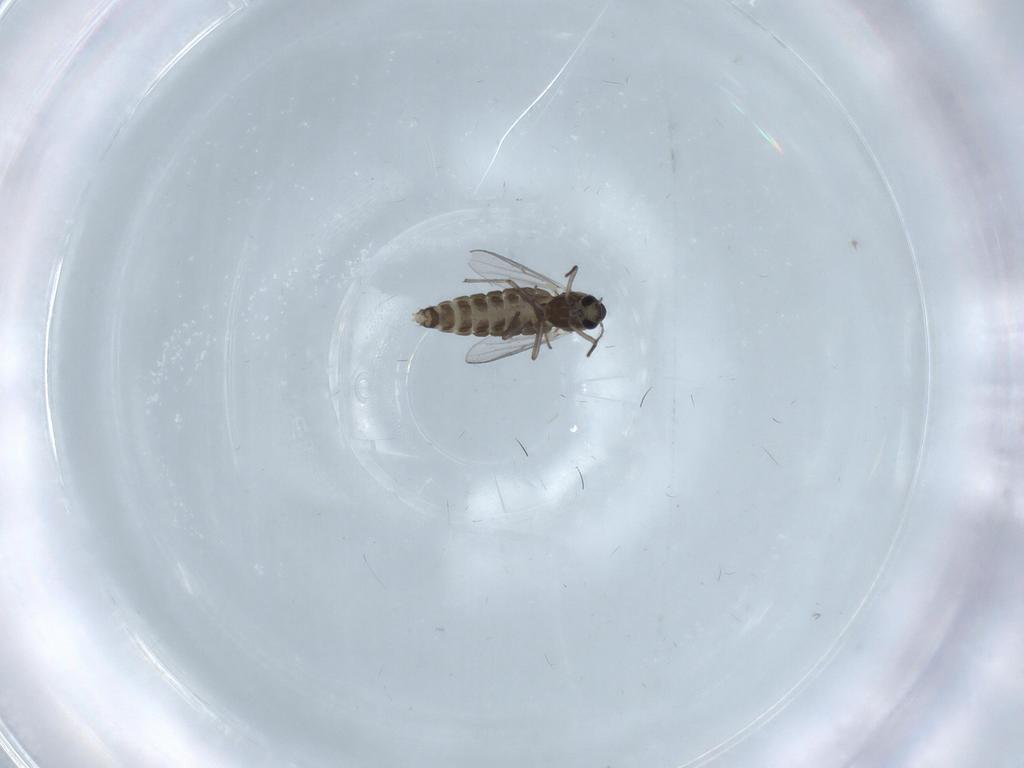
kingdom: Animalia
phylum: Arthropoda
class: Insecta
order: Diptera
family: Chironomidae
